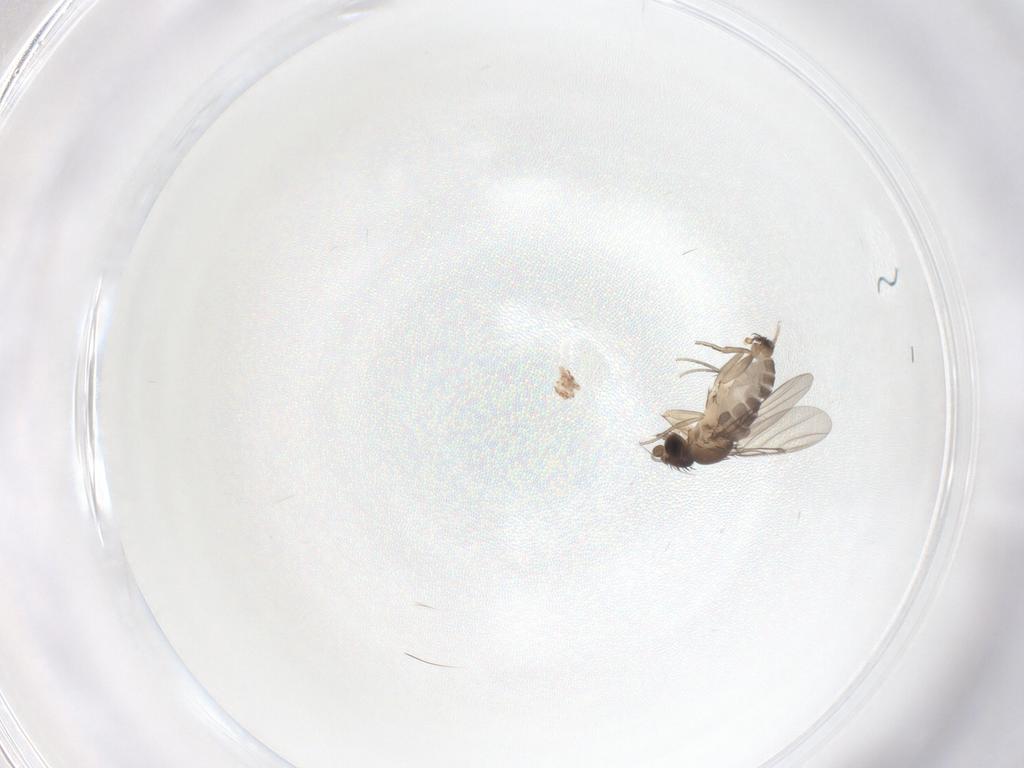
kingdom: Animalia
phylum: Arthropoda
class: Insecta
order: Diptera
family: Phoridae
